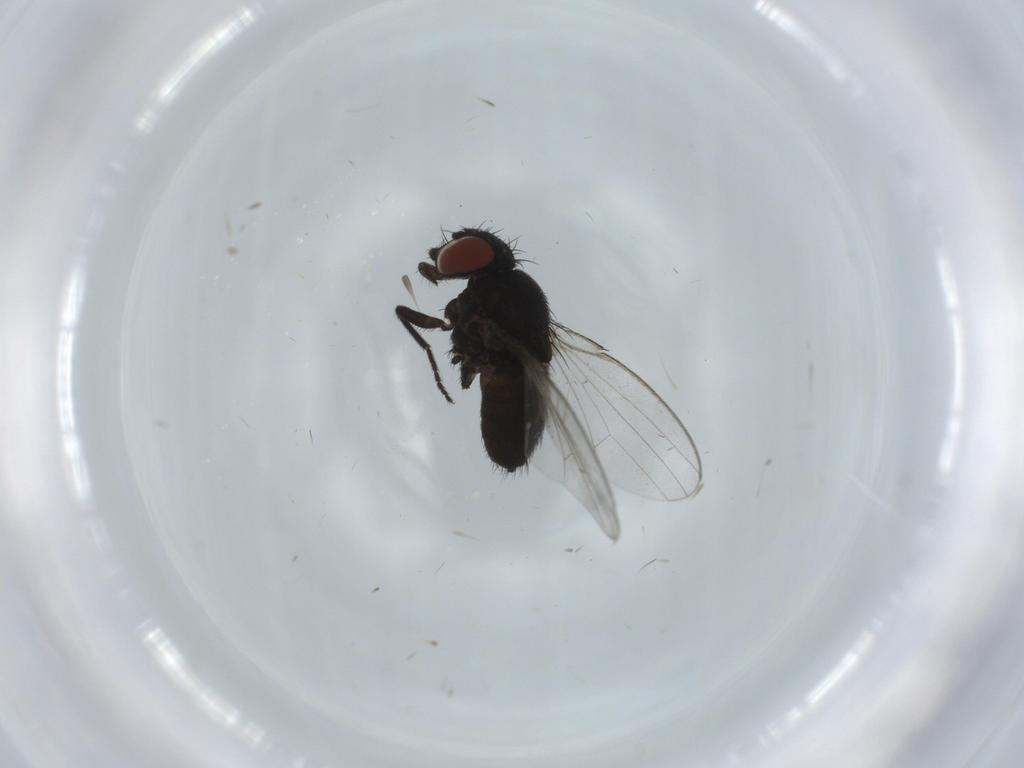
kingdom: Animalia
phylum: Arthropoda
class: Insecta
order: Diptera
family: Milichiidae
